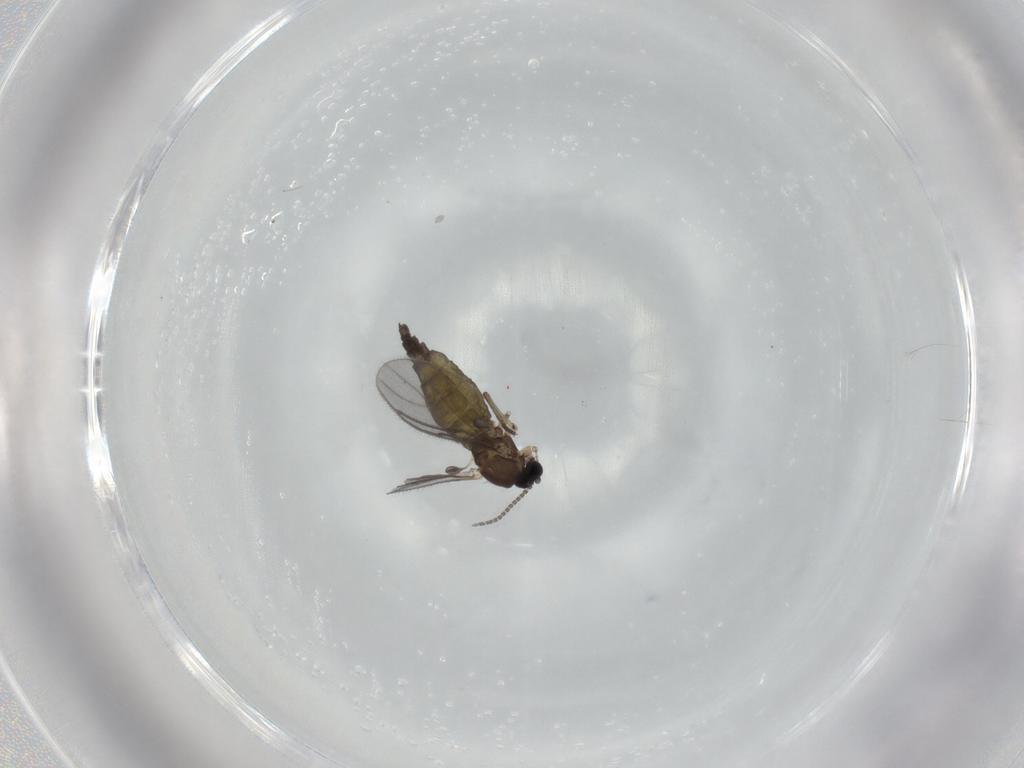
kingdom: Animalia
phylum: Arthropoda
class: Insecta
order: Diptera
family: Sciaridae
